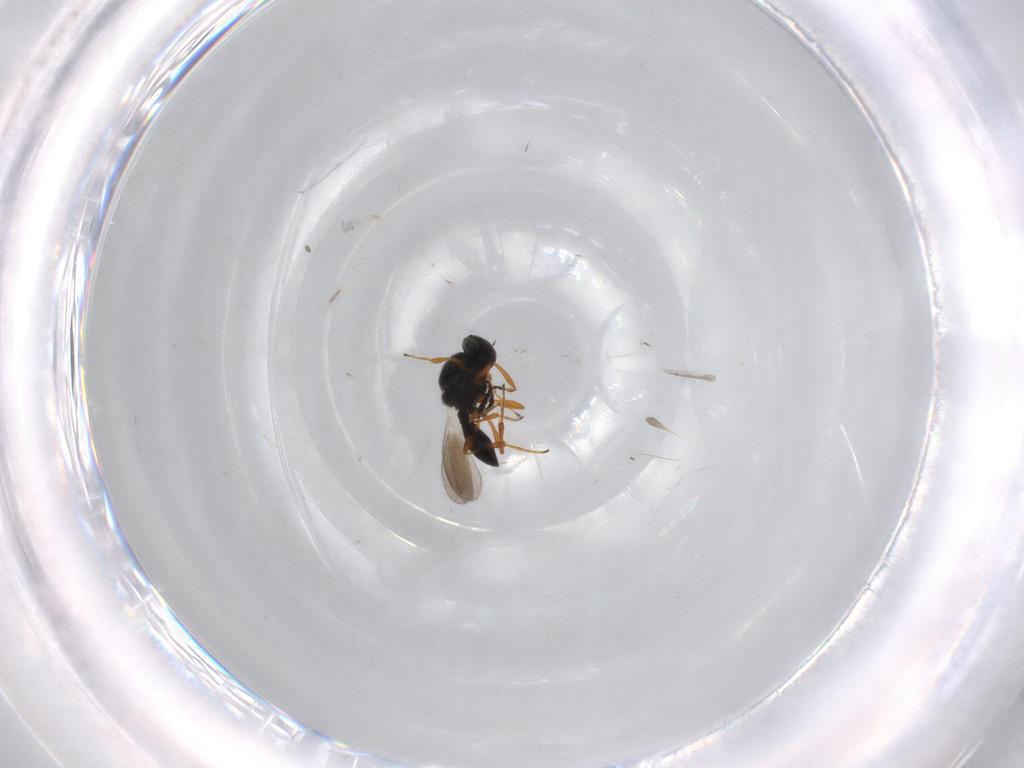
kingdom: Animalia
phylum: Arthropoda
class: Insecta
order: Hymenoptera
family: Platygastridae
